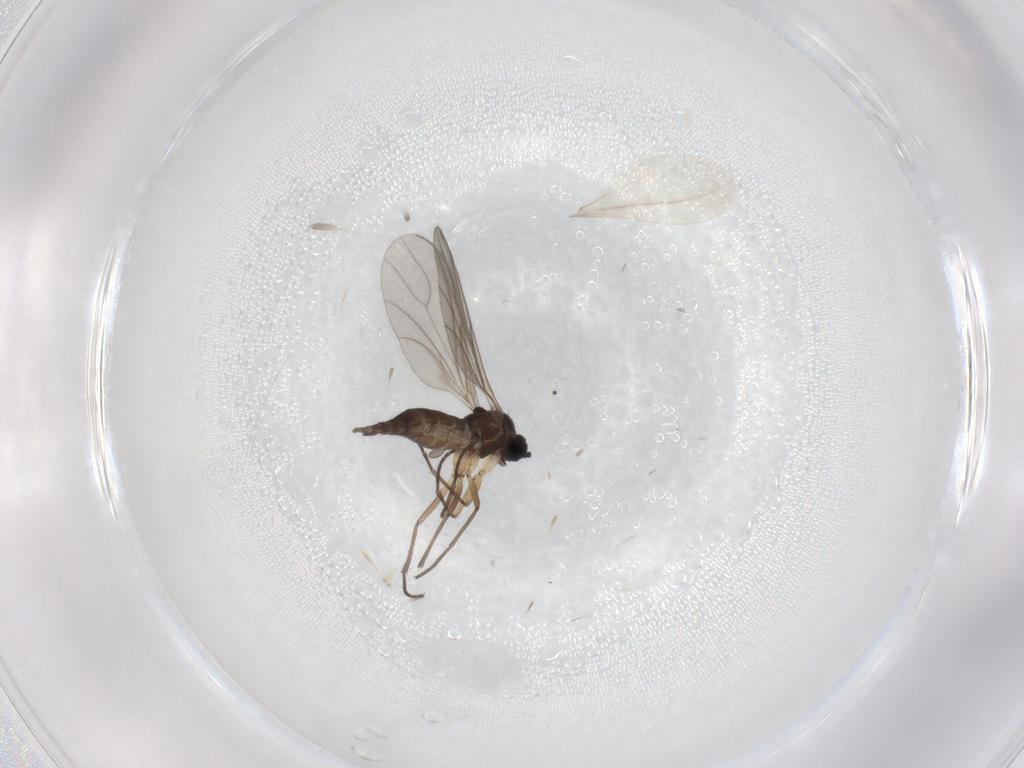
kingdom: Animalia
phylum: Arthropoda
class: Insecta
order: Diptera
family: Sciaridae
